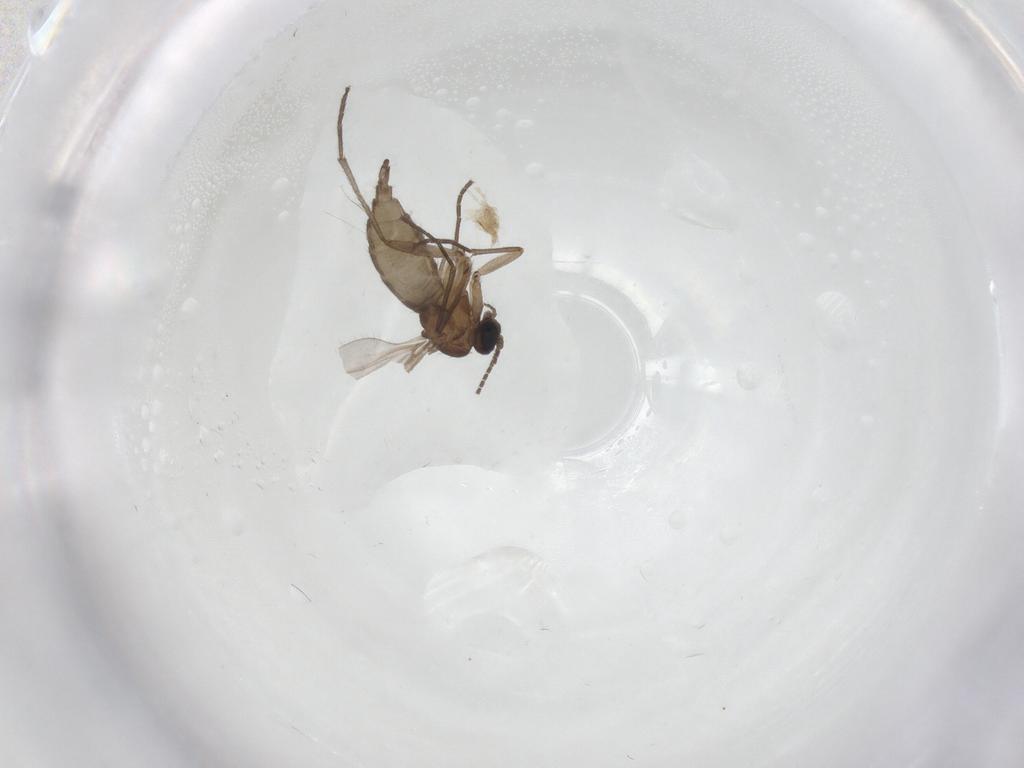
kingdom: Animalia
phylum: Arthropoda
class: Insecta
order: Diptera
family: Sciaridae
